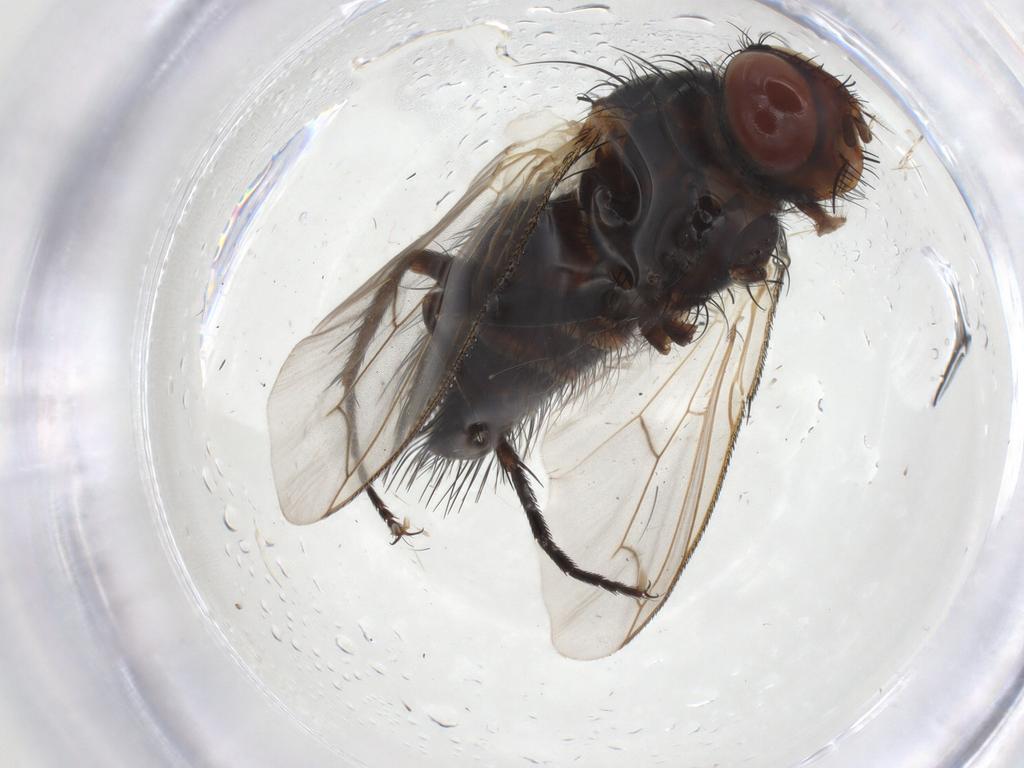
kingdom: Animalia
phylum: Arthropoda
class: Insecta
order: Diptera
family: Tachinidae
